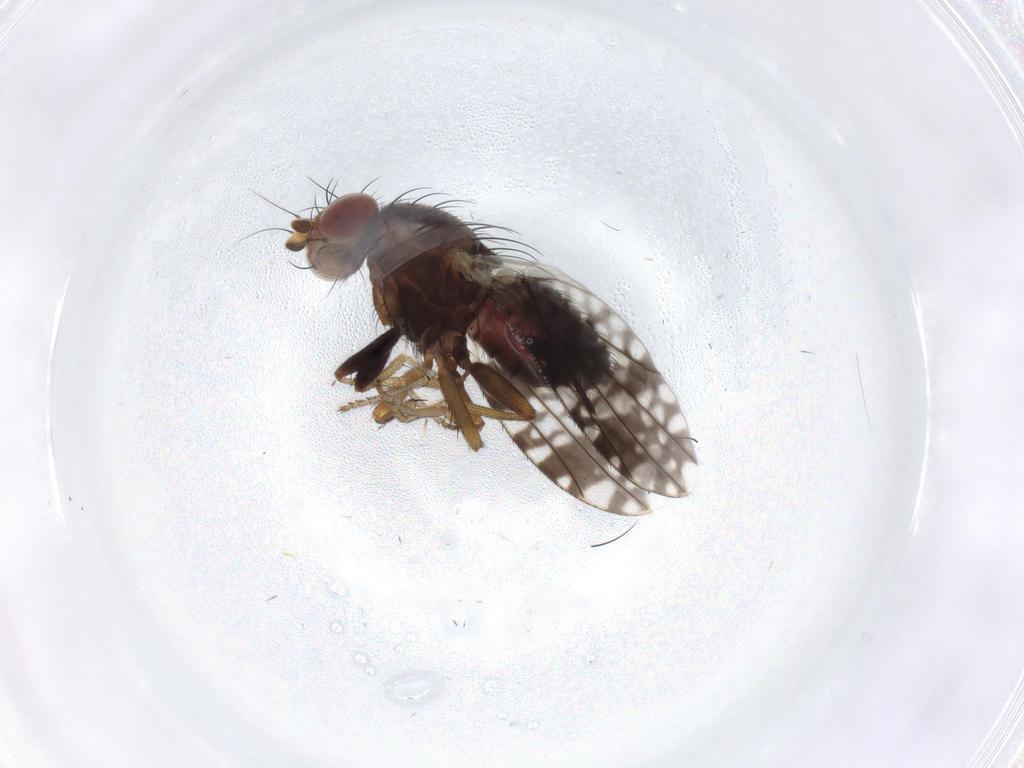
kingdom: Animalia
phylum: Arthropoda
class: Insecta
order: Diptera
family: Tephritidae
